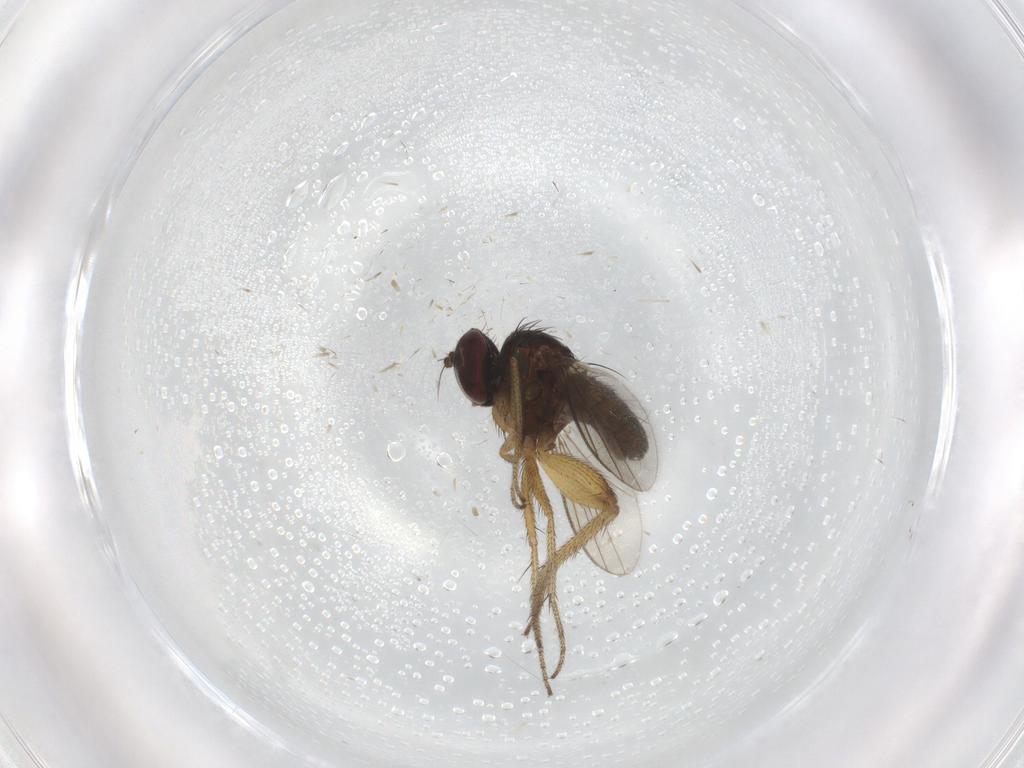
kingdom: Animalia
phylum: Arthropoda
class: Insecta
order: Diptera
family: Dolichopodidae
